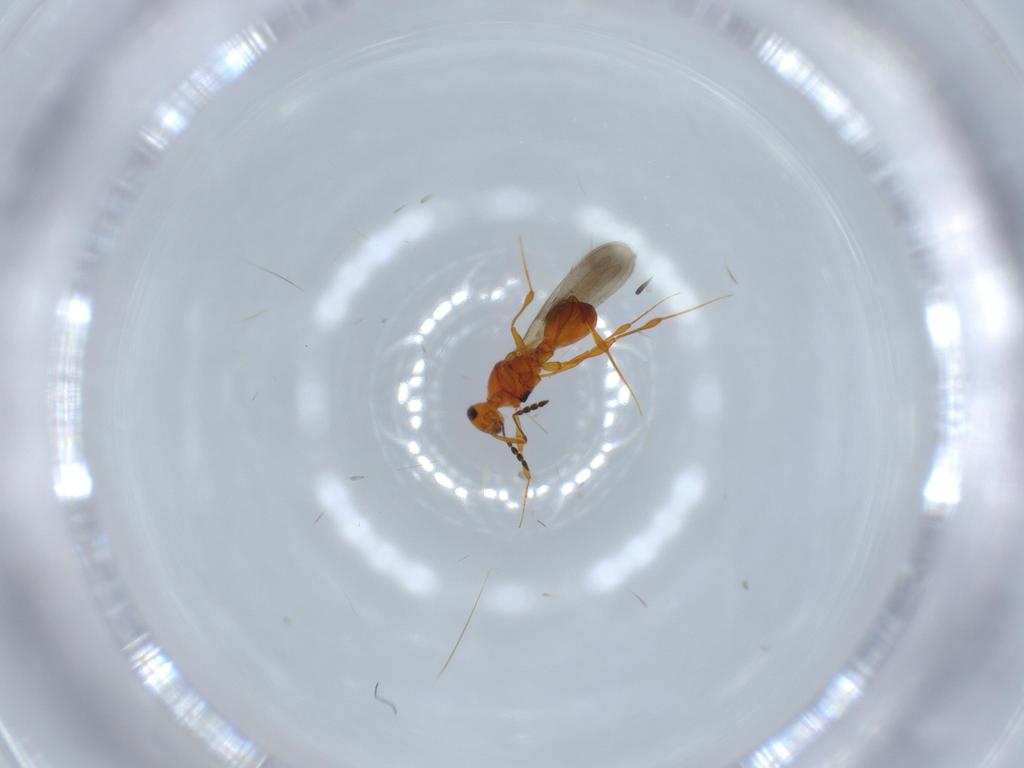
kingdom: Animalia
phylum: Arthropoda
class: Insecta
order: Hymenoptera
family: Platygastridae
